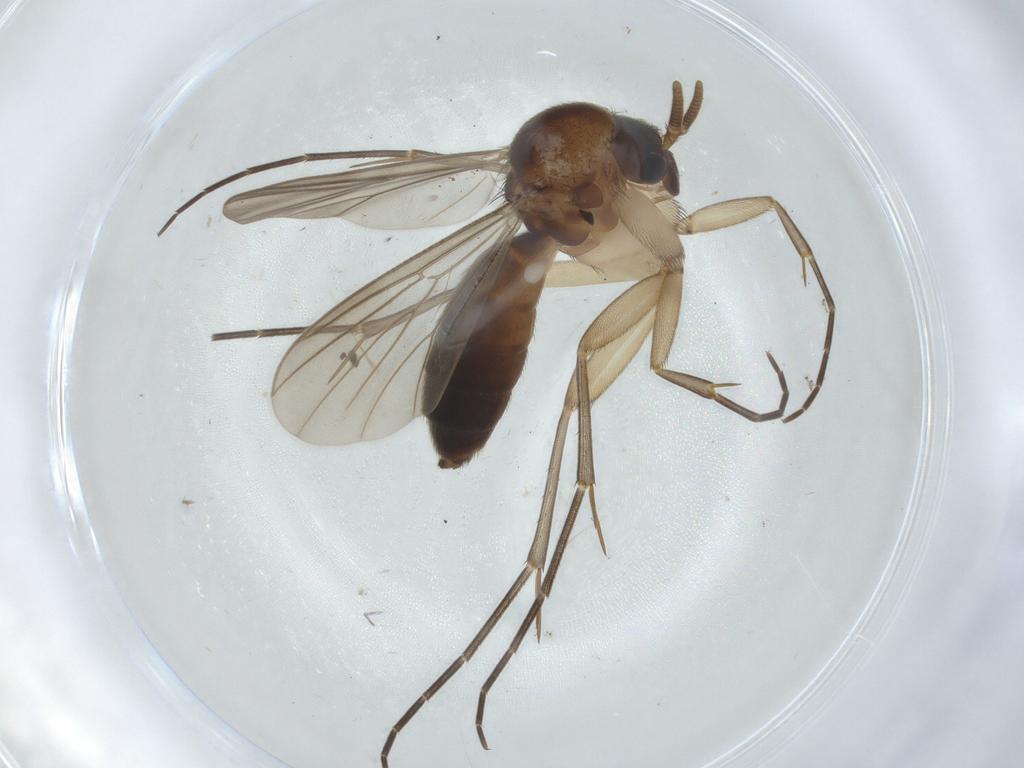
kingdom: Animalia
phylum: Arthropoda
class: Insecta
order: Diptera
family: Mycetophilidae
